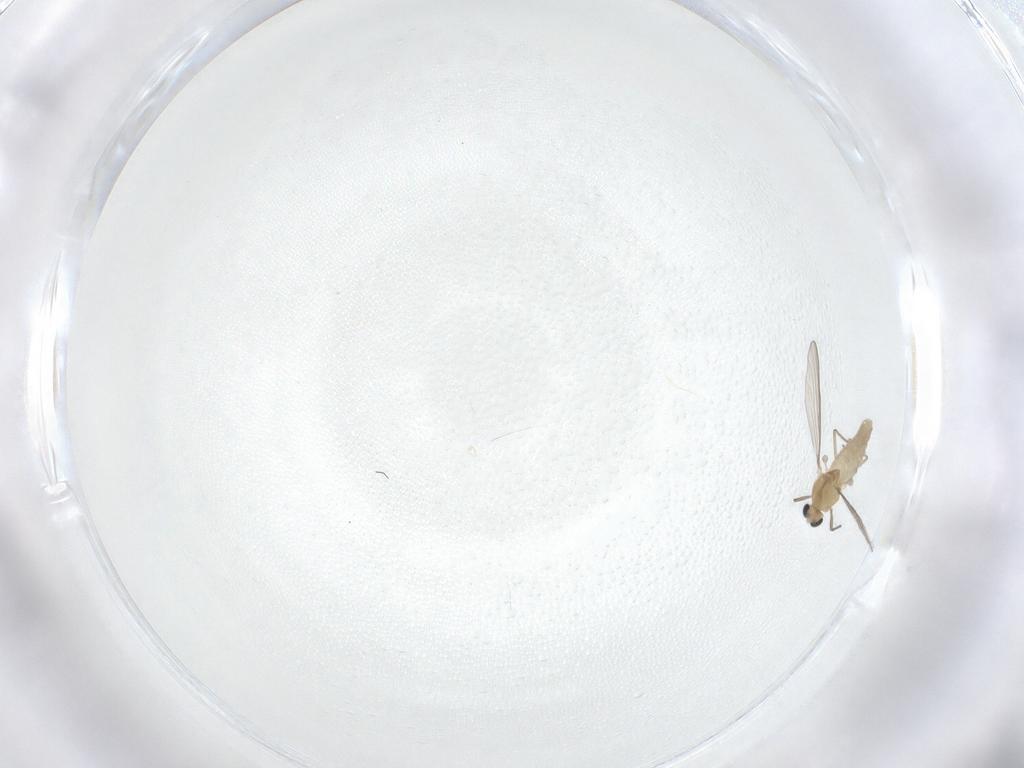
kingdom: Animalia
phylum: Arthropoda
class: Insecta
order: Diptera
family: Chironomidae
